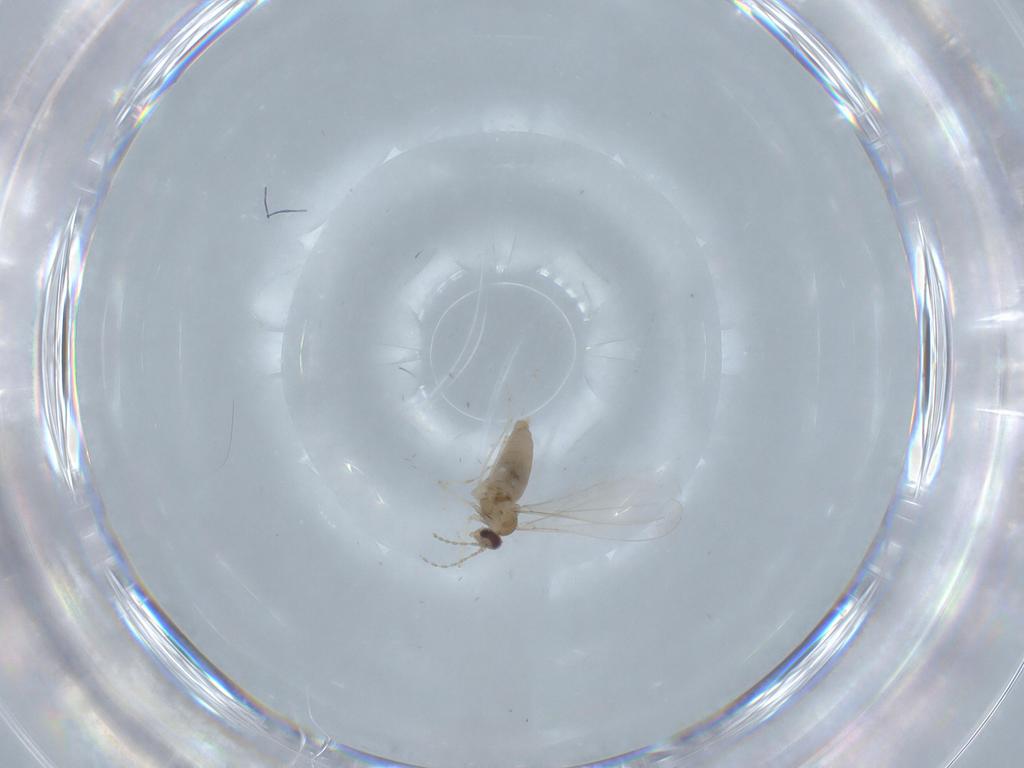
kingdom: Animalia
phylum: Arthropoda
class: Insecta
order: Diptera
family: Cecidomyiidae
